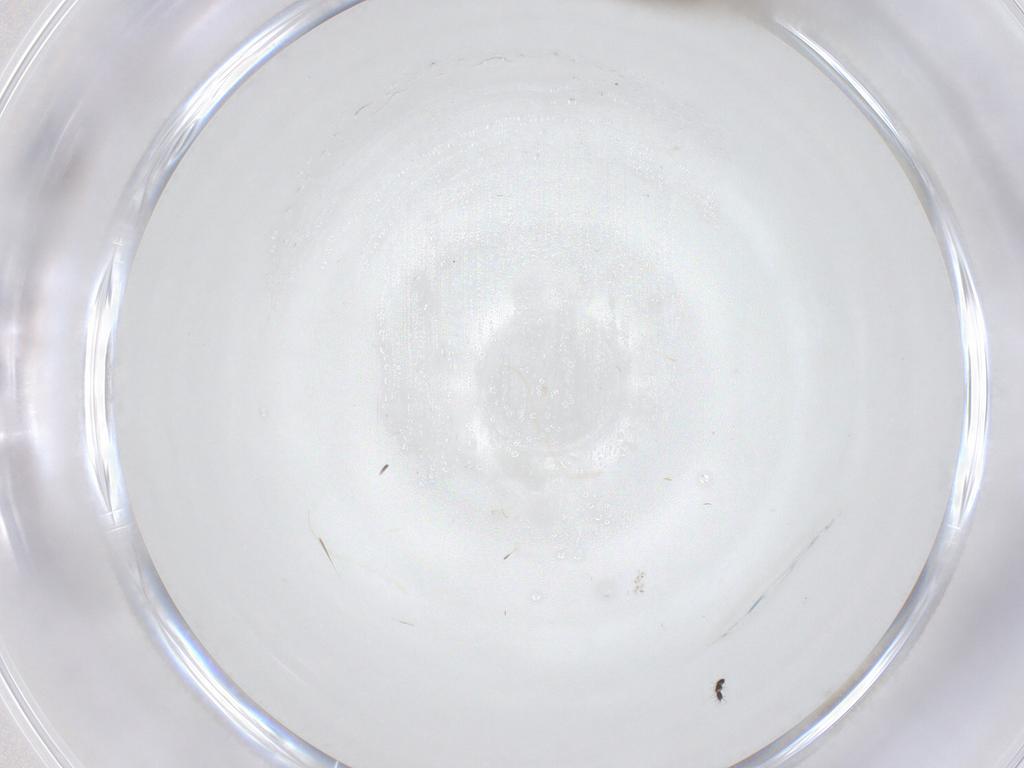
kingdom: Animalia
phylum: Arthropoda
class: Insecta
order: Diptera
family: Phoridae
